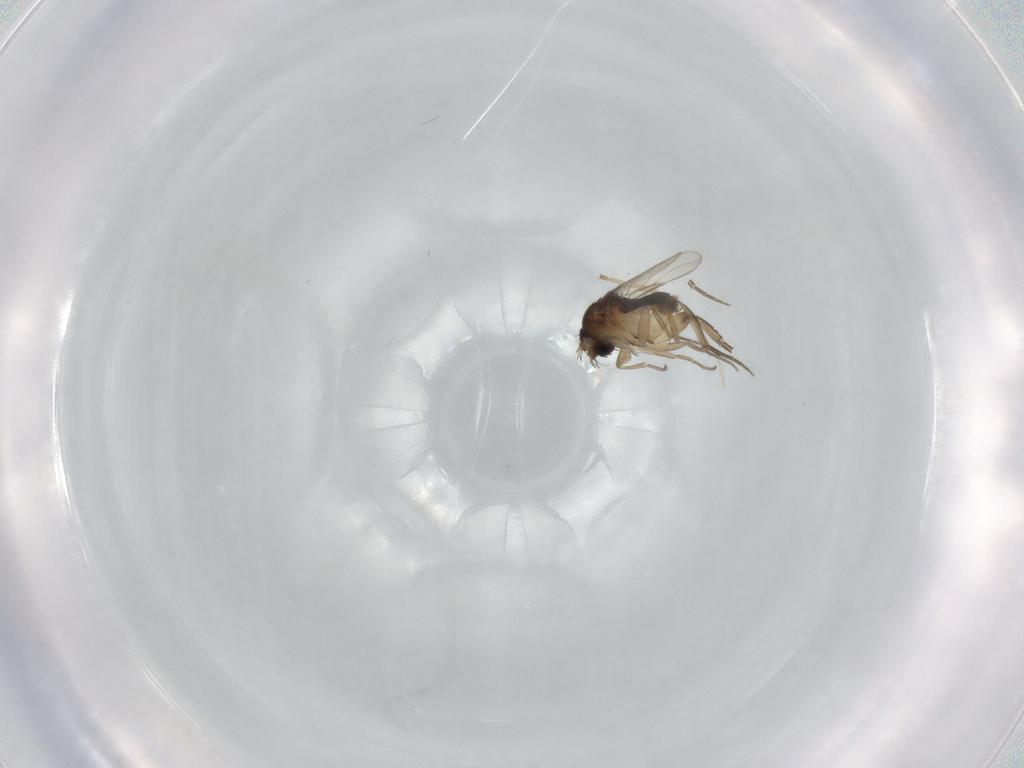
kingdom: Animalia
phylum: Arthropoda
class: Insecta
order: Diptera
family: Phoridae
